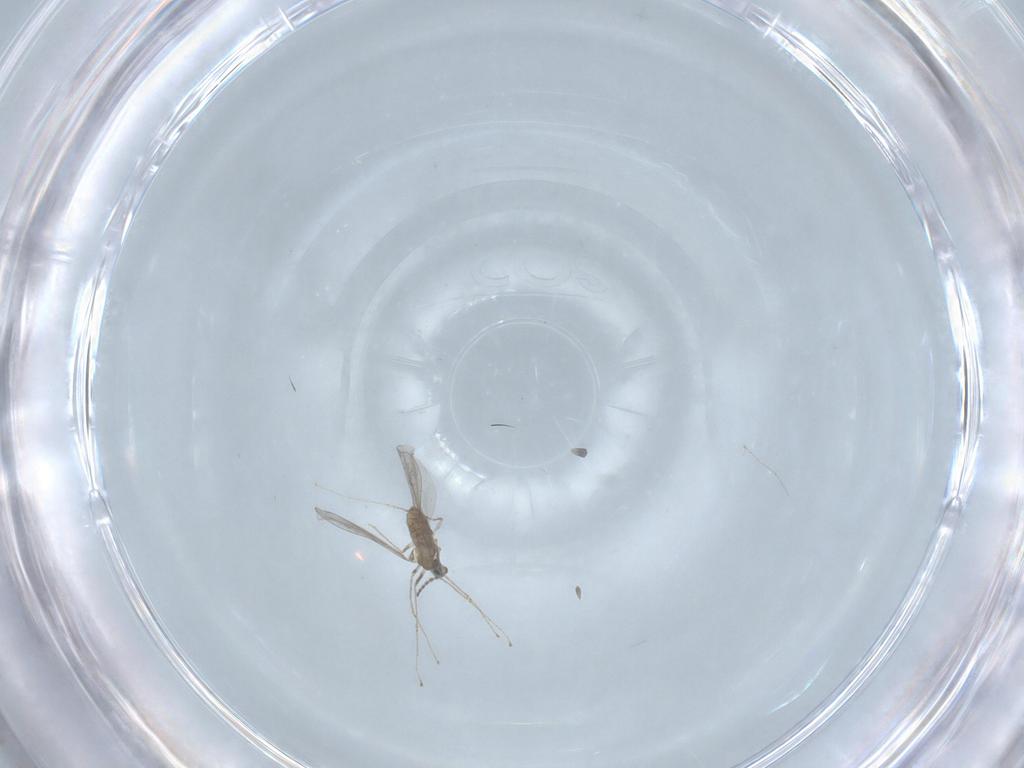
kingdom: Animalia
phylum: Arthropoda
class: Insecta
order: Diptera
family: Cecidomyiidae
